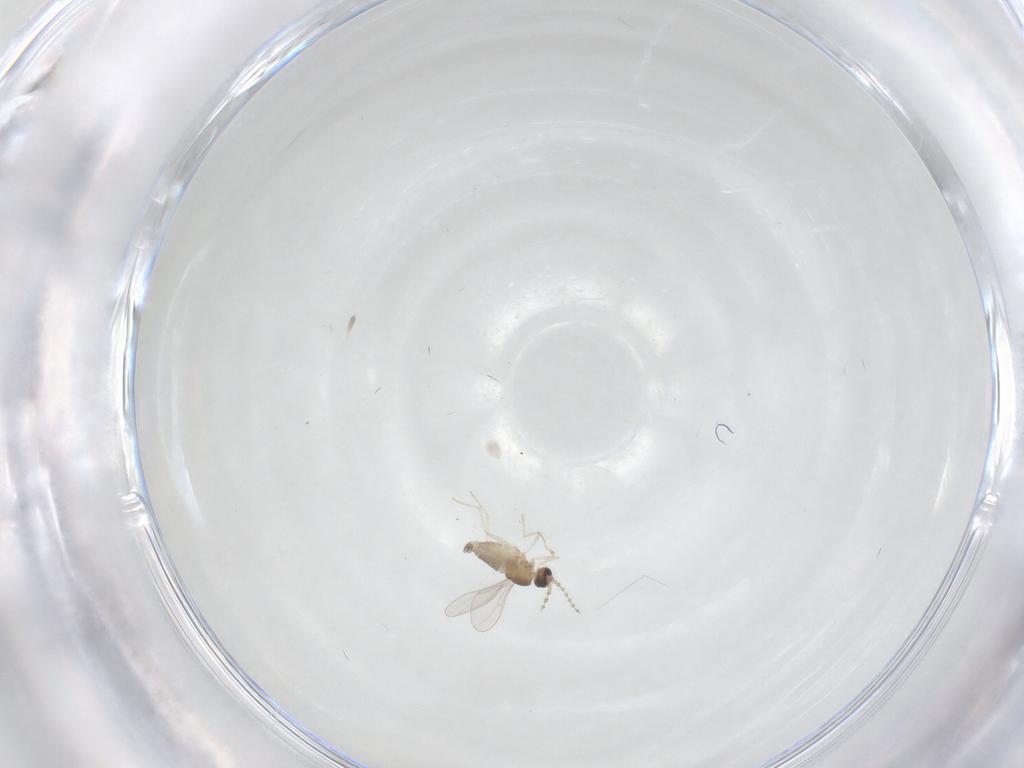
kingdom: Animalia
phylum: Arthropoda
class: Insecta
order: Diptera
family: Cecidomyiidae
